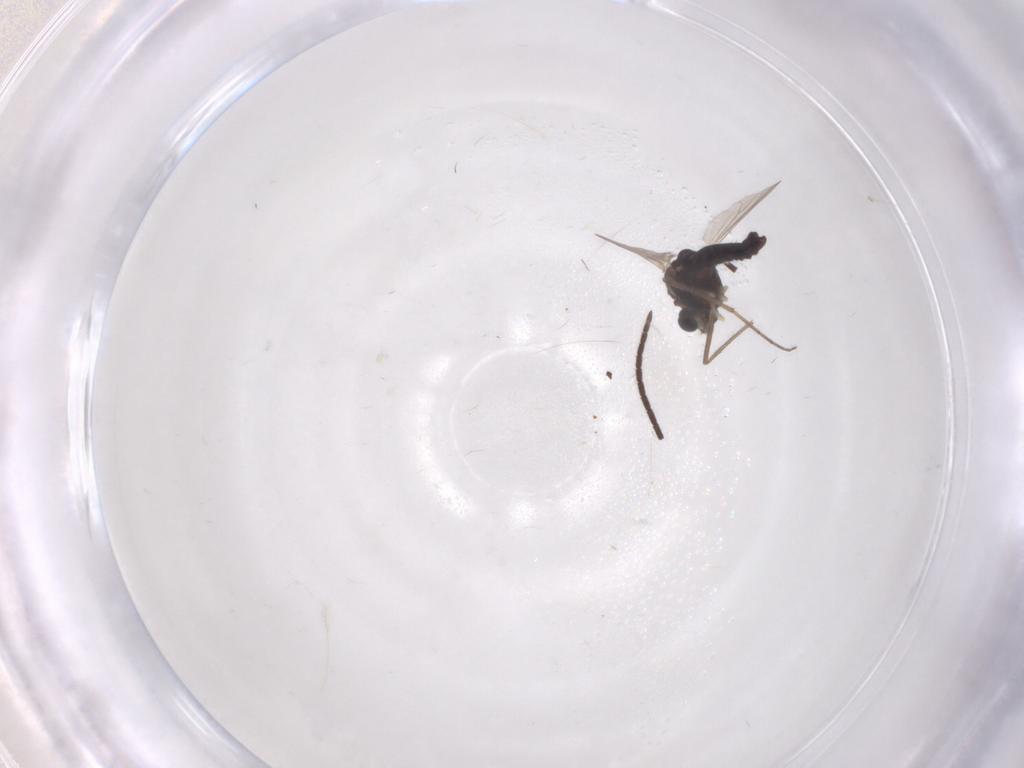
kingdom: Animalia
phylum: Arthropoda
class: Insecta
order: Diptera
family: Chironomidae
